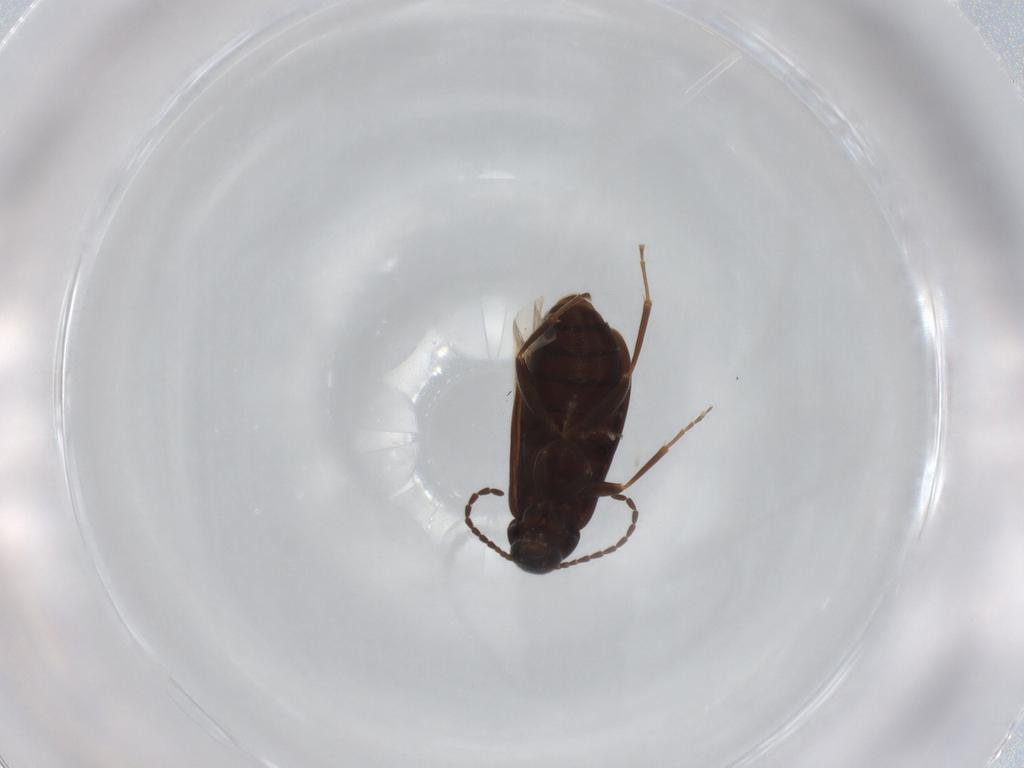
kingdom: Animalia
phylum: Arthropoda
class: Insecta
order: Coleoptera
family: Scraptiidae
